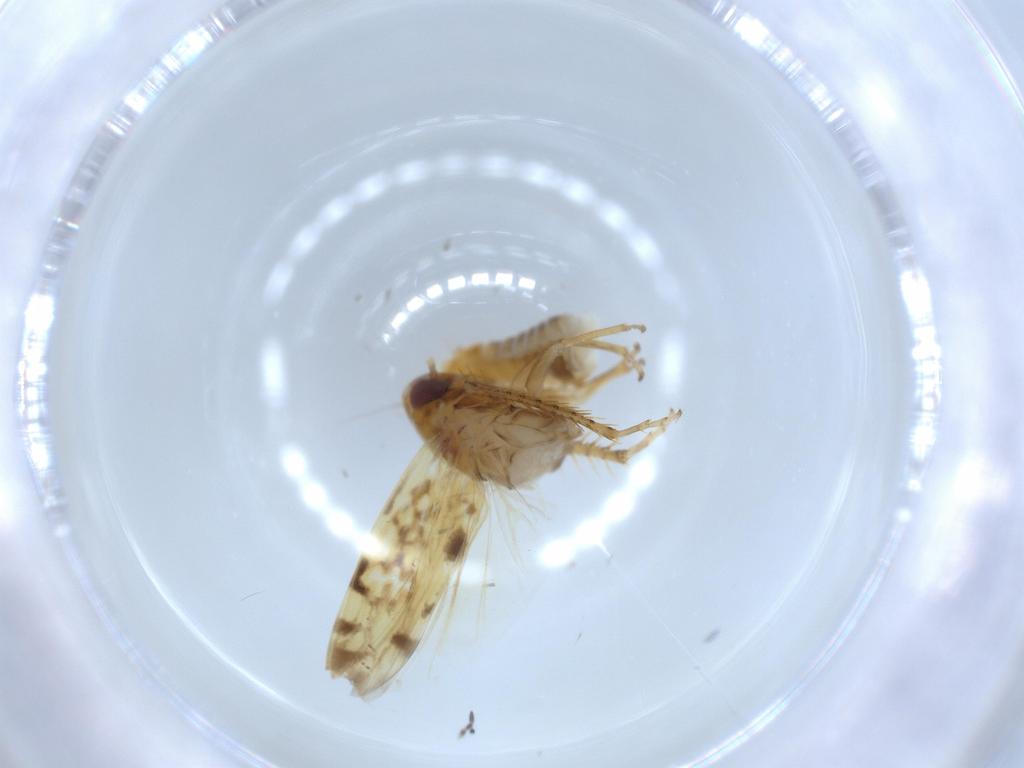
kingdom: Animalia
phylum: Arthropoda
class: Insecta
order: Hemiptera
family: Cicadellidae
